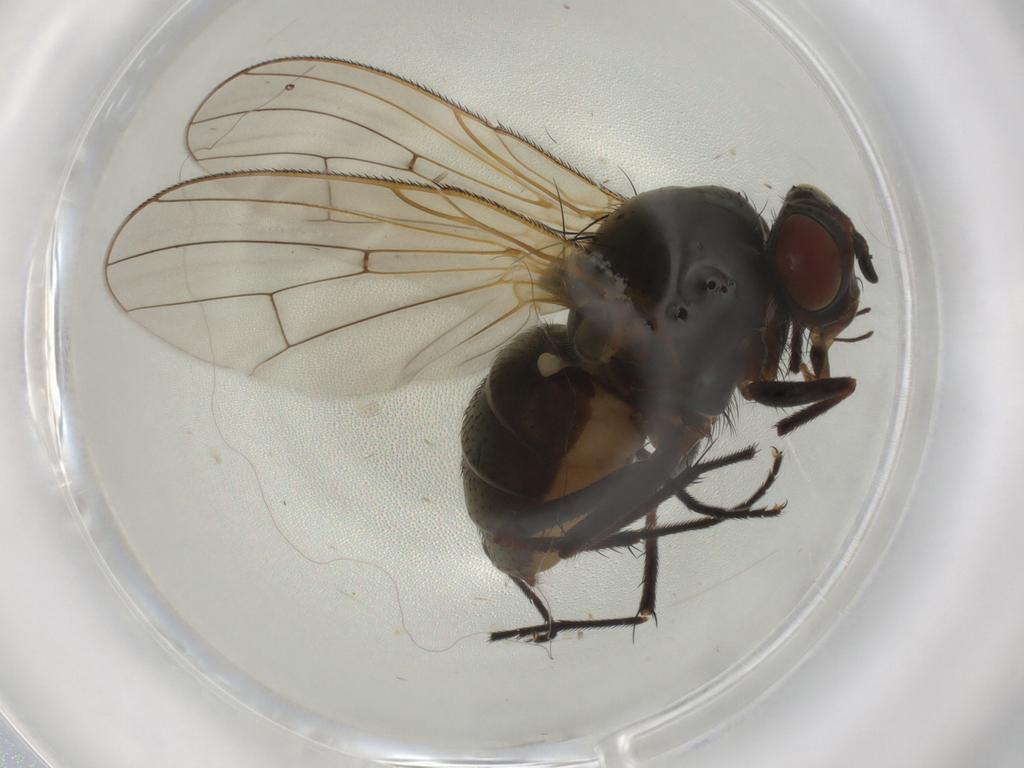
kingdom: Animalia
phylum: Arthropoda
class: Insecta
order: Diptera
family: Anthomyiidae
